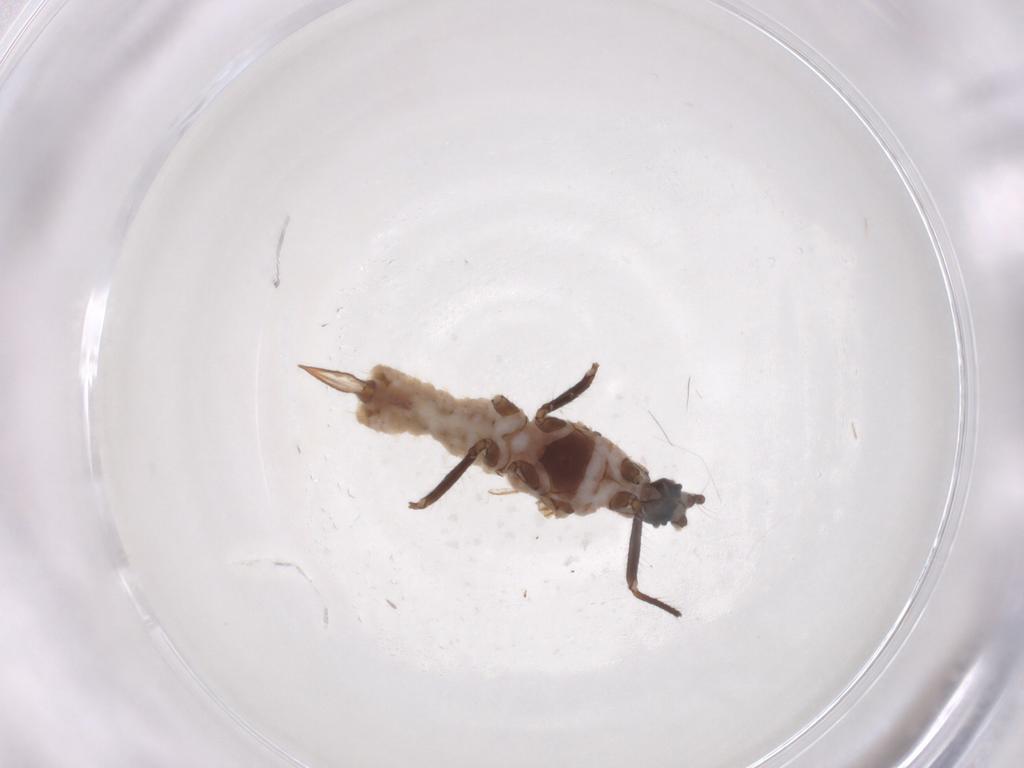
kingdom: Animalia
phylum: Arthropoda
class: Insecta
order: Hemiptera
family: Putoidae
